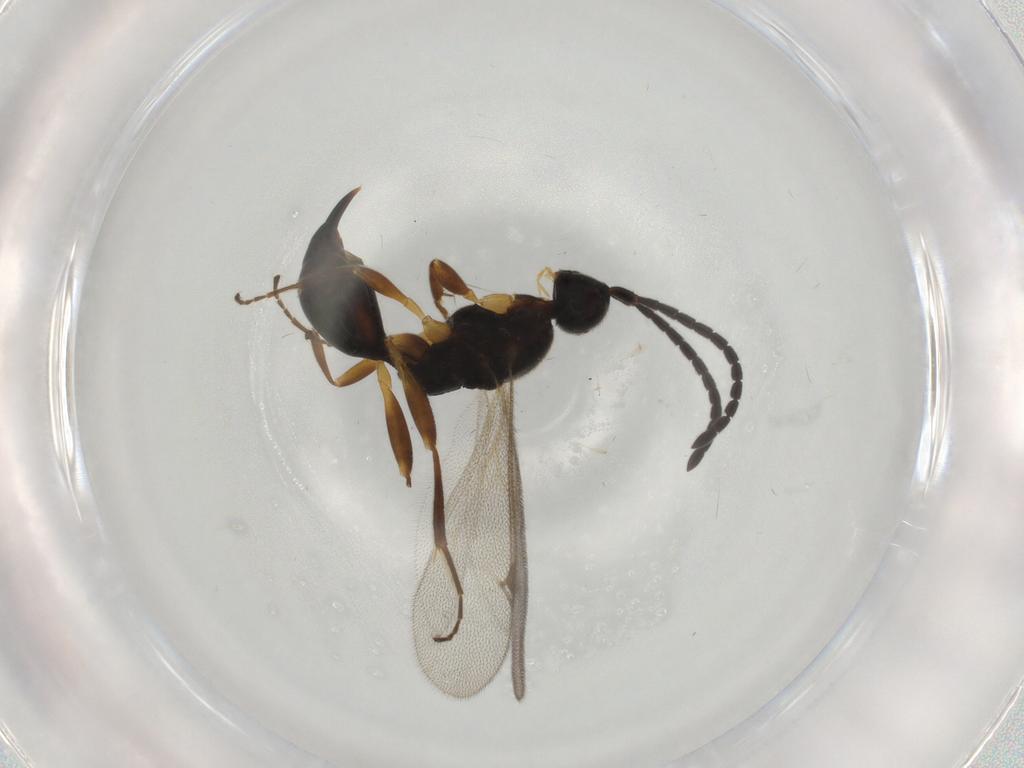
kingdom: Animalia
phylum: Arthropoda
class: Insecta
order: Hymenoptera
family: Proctotrupidae
